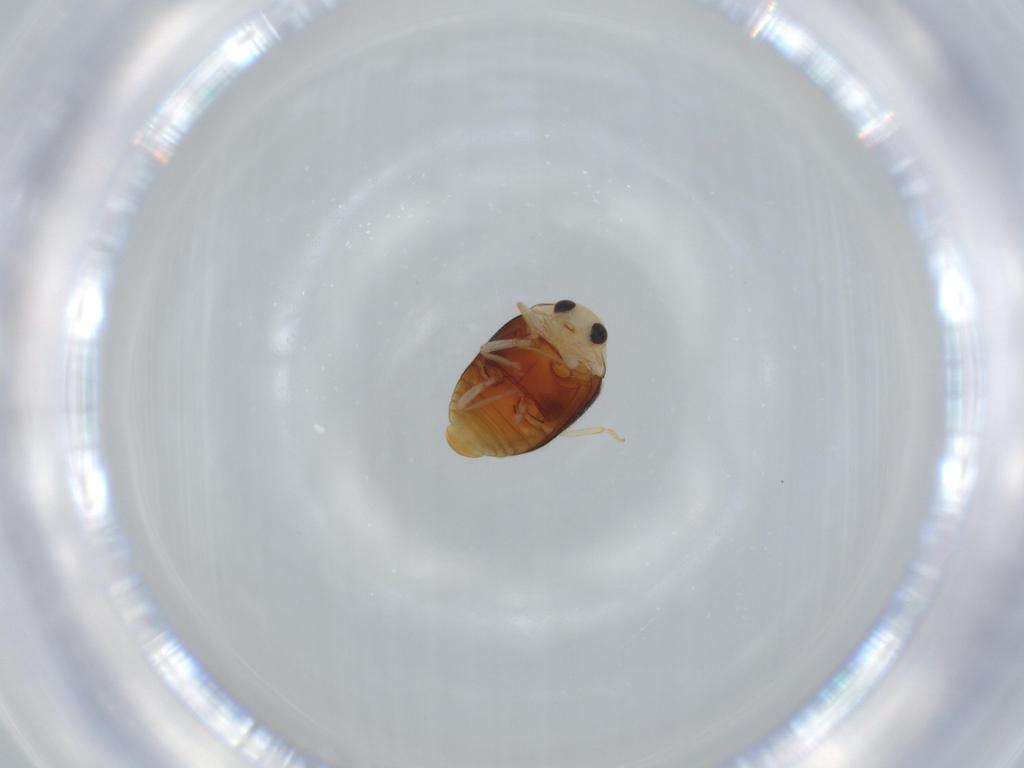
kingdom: Animalia
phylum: Arthropoda
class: Insecta
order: Coleoptera
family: Coccinellidae
